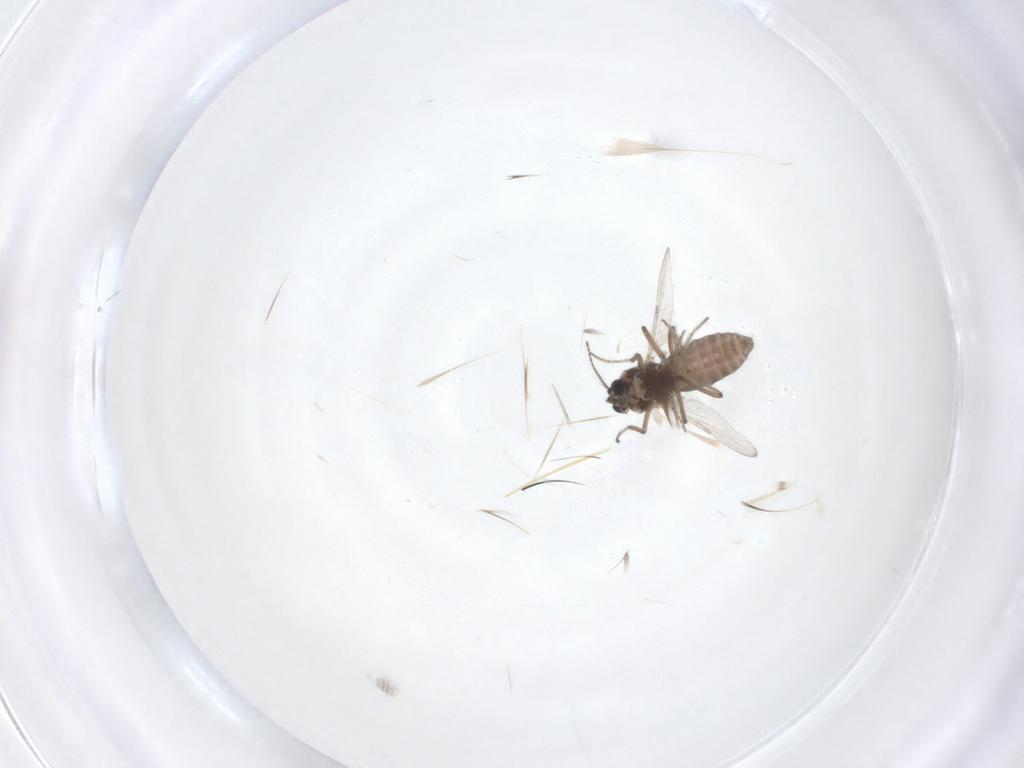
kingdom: Animalia
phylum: Arthropoda
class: Insecta
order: Diptera
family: Ceratopogonidae
